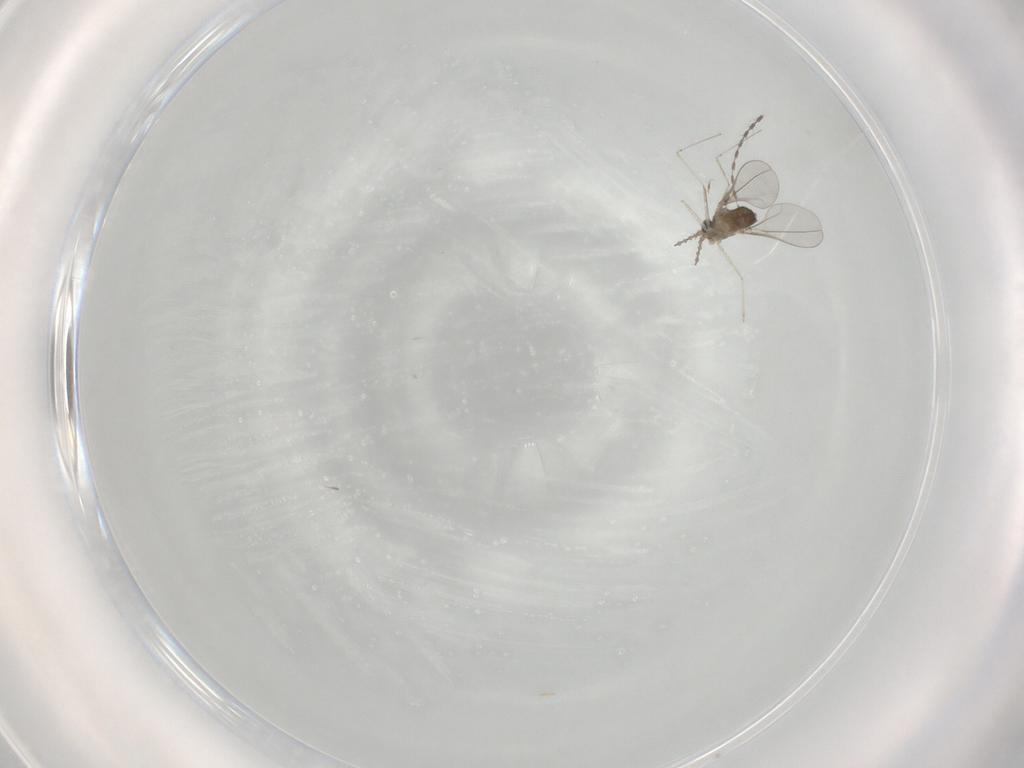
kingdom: Animalia
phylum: Arthropoda
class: Insecta
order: Diptera
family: Cecidomyiidae
